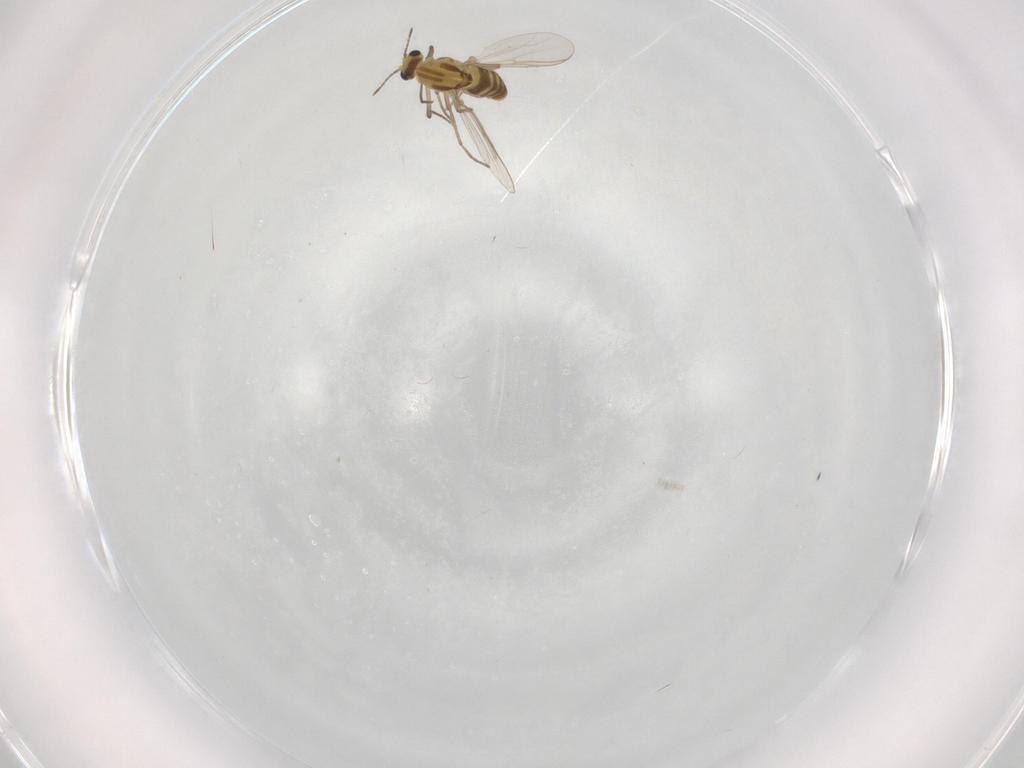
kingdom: Animalia
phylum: Arthropoda
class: Insecta
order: Diptera
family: Chironomidae
